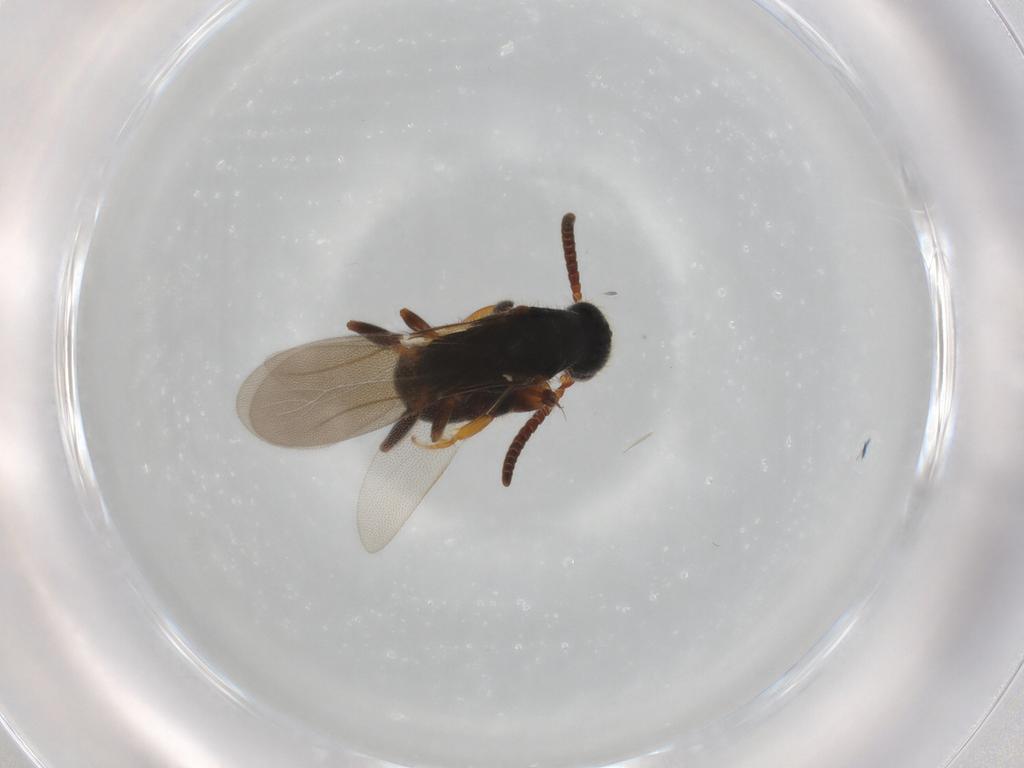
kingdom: Animalia
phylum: Arthropoda
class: Insecta
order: Hymenoptera
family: Bethylidae
